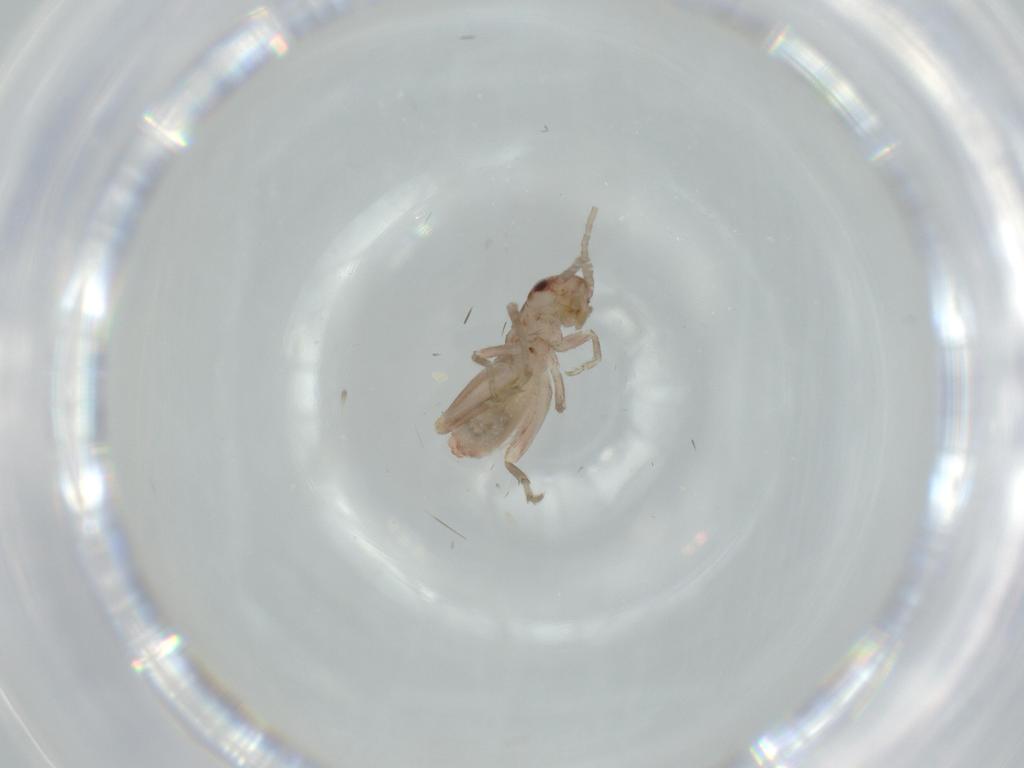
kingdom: Animalia
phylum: Arthropoda
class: Insecta
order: Orthoptera
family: Mogoplistidae
